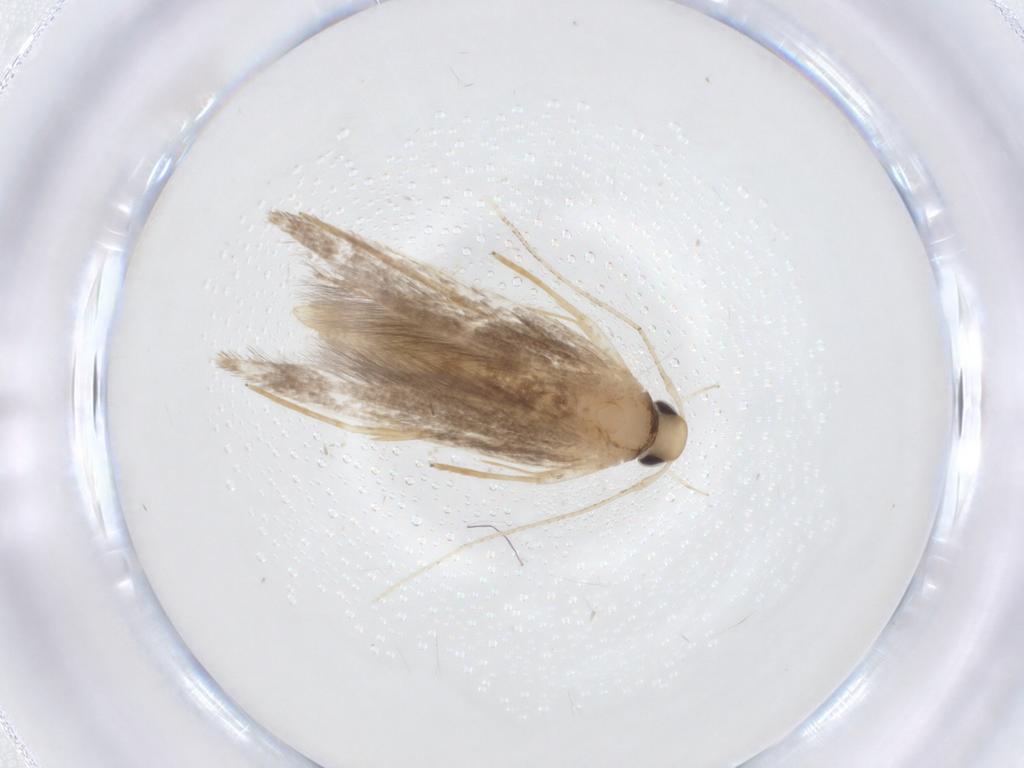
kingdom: Animalia
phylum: Arthropoda
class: Insecta
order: Lepidoptera
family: Cosmopterigidae
